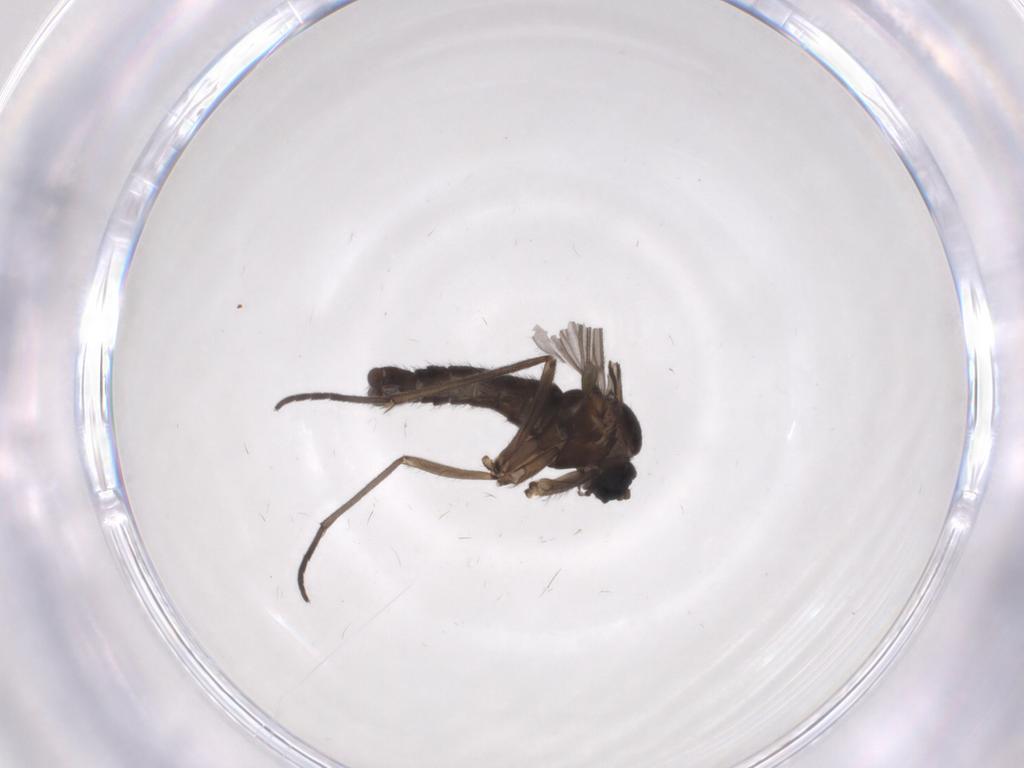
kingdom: Animalia
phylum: Arthropoda
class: Insecta
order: Diptera
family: Sciaridae
